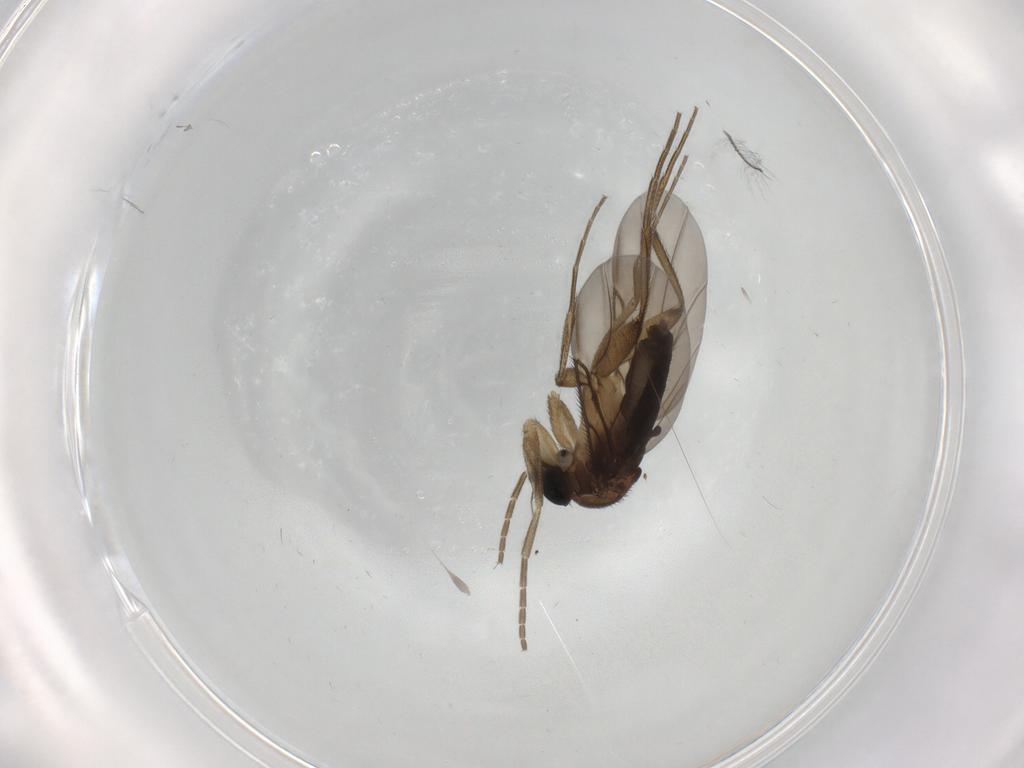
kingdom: Animalia
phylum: Arthropoda
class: Insecta
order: Diptera
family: Phoridae
